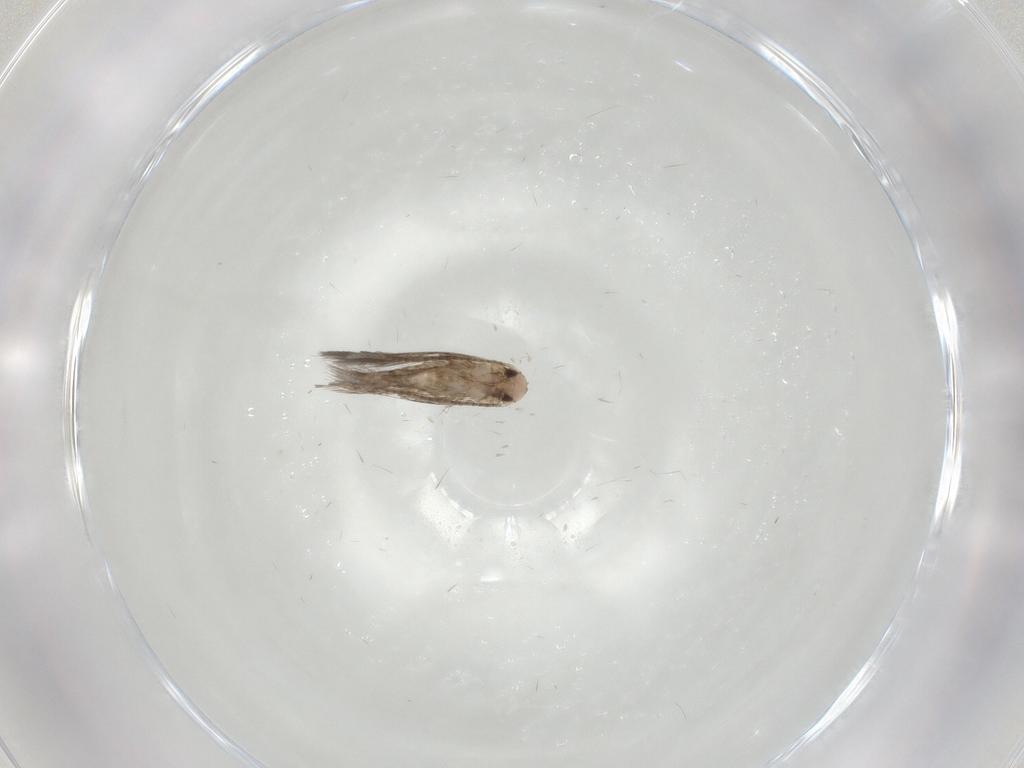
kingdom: Animalia
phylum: Arthropoda
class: Insecta
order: Lepidoptera
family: Gracillariidae
